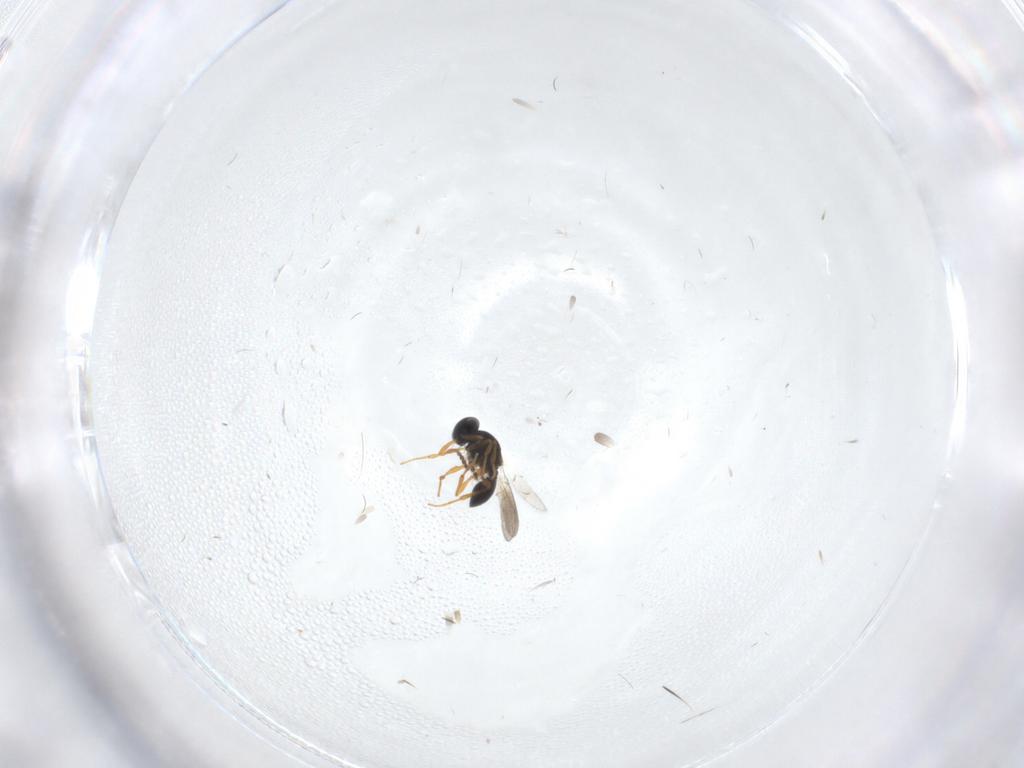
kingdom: Animalia
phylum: Arthropoda
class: Insecta
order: Hymenoptera
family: Platygastridae
